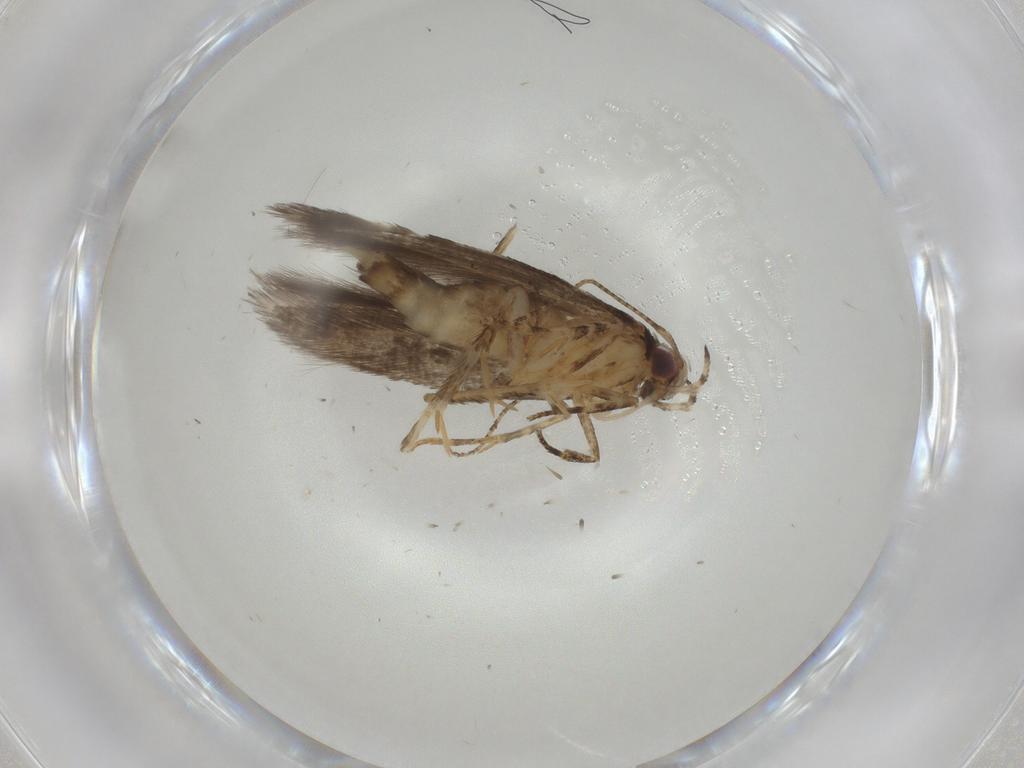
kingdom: Animalia
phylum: Arthropoda
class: Insecta
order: Lepidoptera
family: Cosmopterigidae
